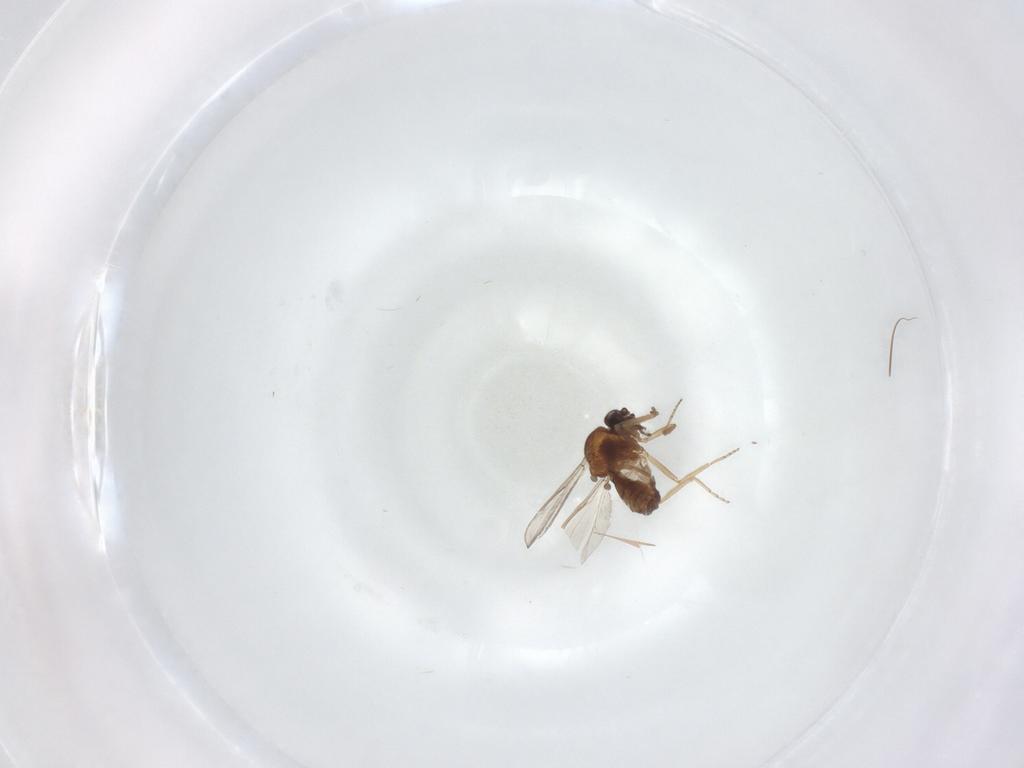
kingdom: Animalia
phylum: Arthropoda
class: Insecta
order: Diptera
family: Ceratopogonidae
